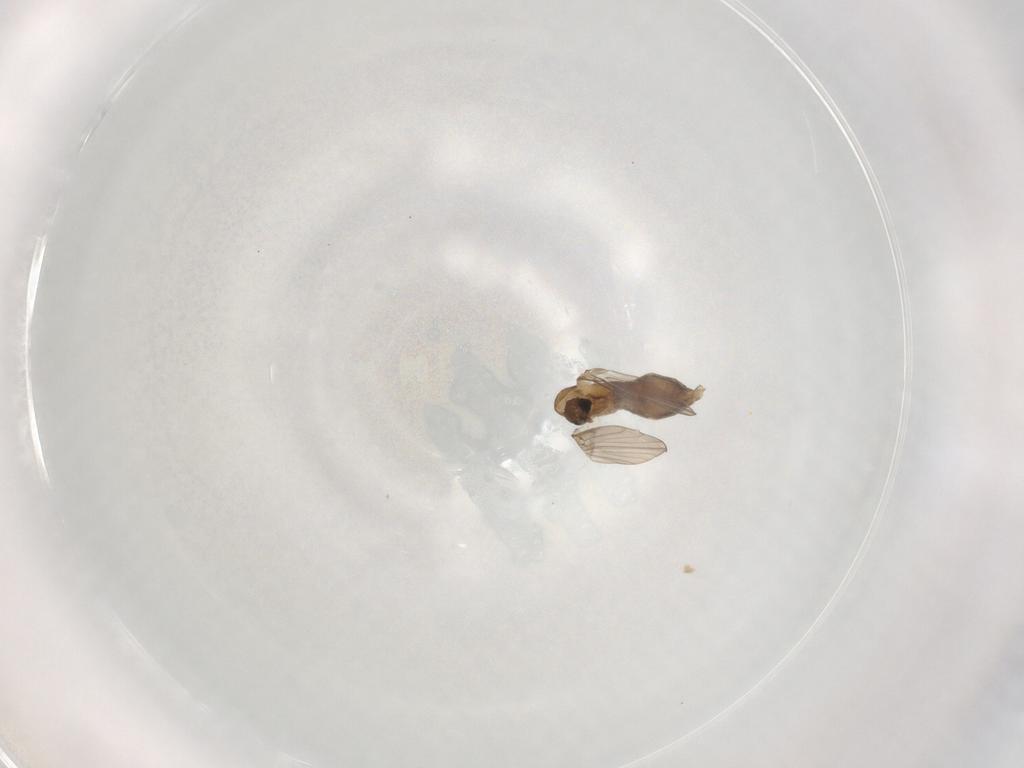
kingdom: Animalia
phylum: Arthropoda
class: Insecta
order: Diptera
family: Psychodidae
